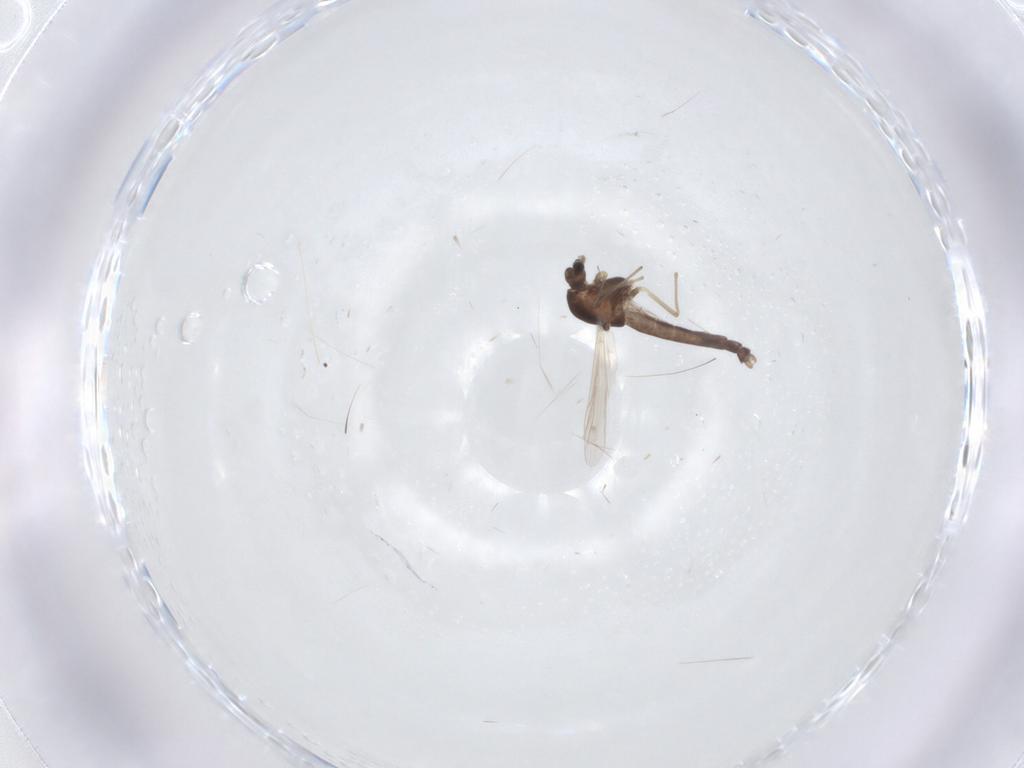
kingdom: Animalia
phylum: Arthropoda
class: Insecta
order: Diptera
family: Chironomidae
